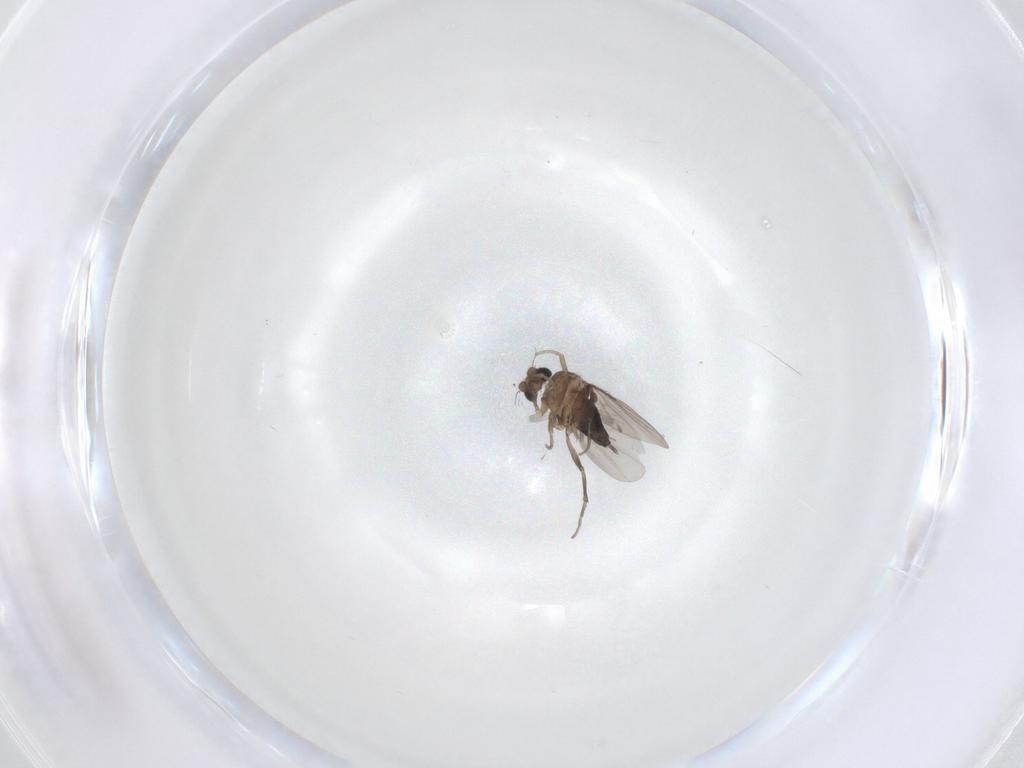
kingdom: Animalia
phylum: Arthropoda
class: Insecta
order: Diptera
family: Phoridae
